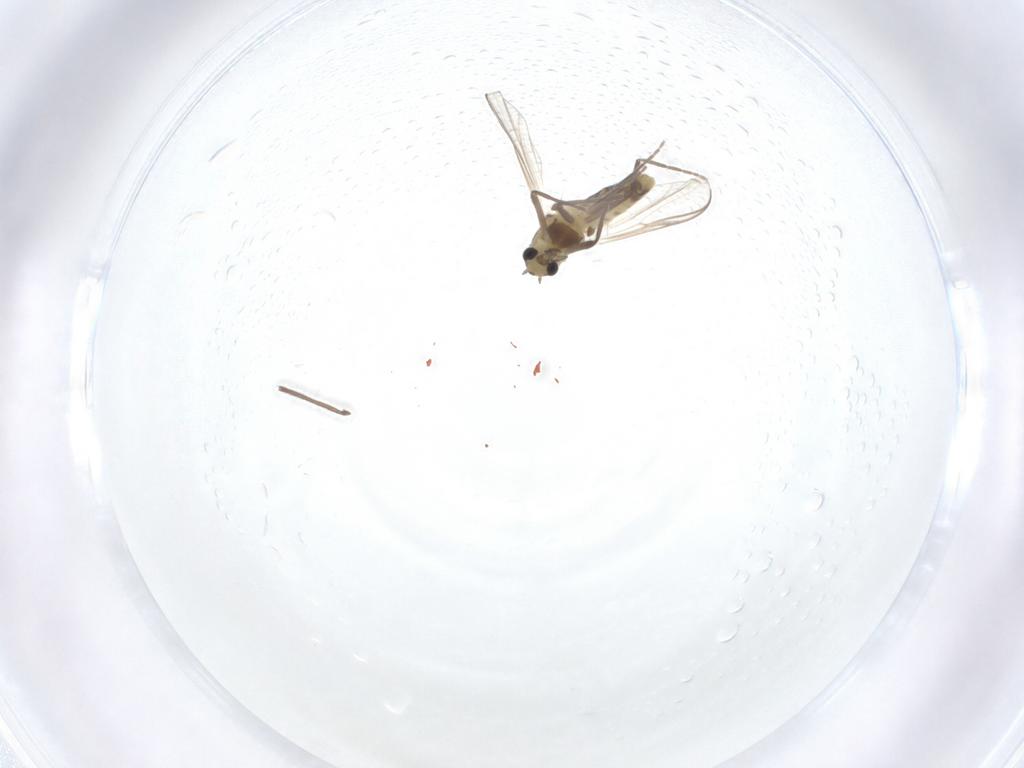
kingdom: Animalia
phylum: Arthropoda
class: Insecta
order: Diptera
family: Chironomidae
